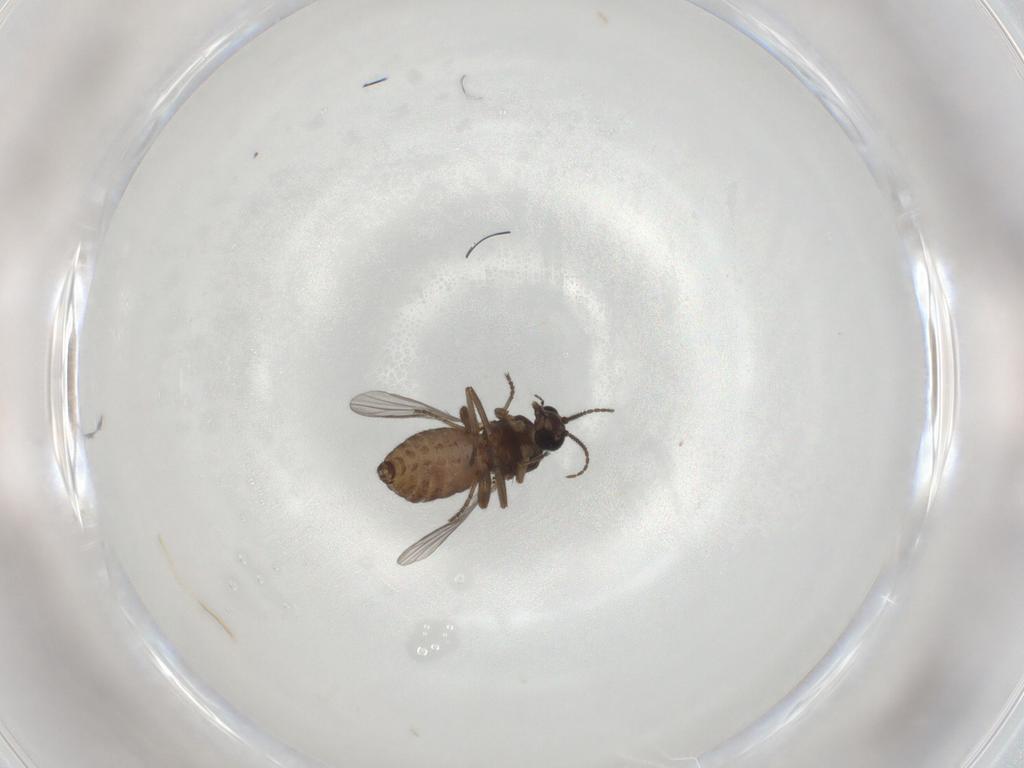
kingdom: Animalia
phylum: Arthropoda
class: Insecta
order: Diptera
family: Ceratopogonidae
